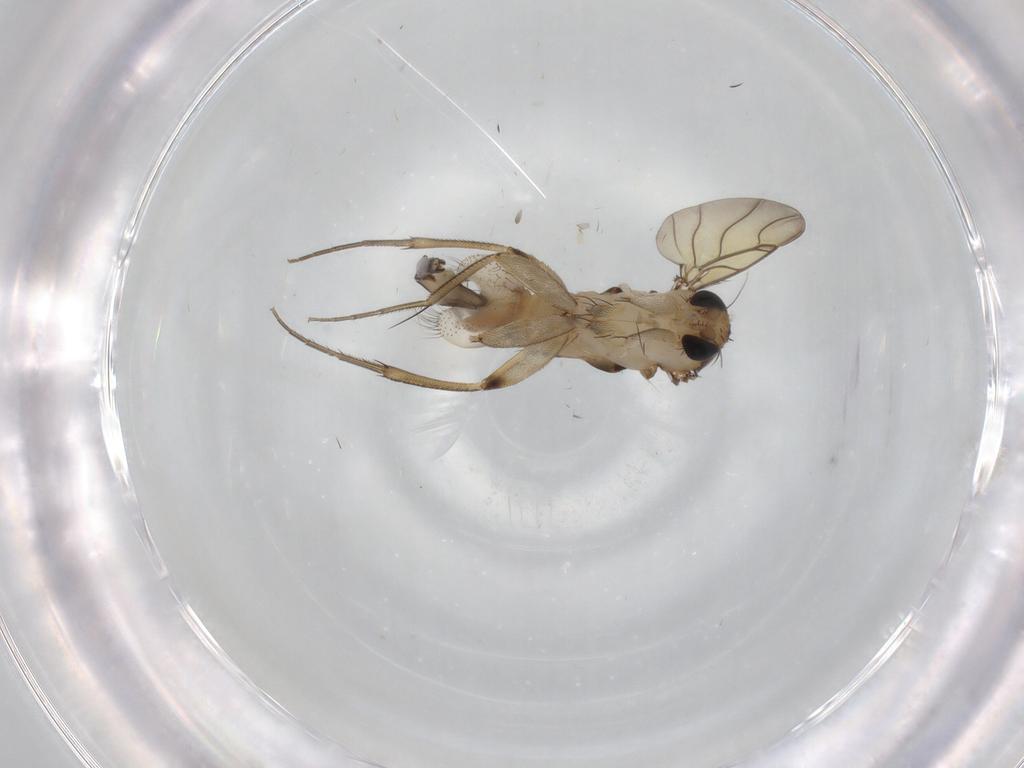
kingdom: Animalia
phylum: Arthropoda
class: Insecta
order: Diptera
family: Phoridae
